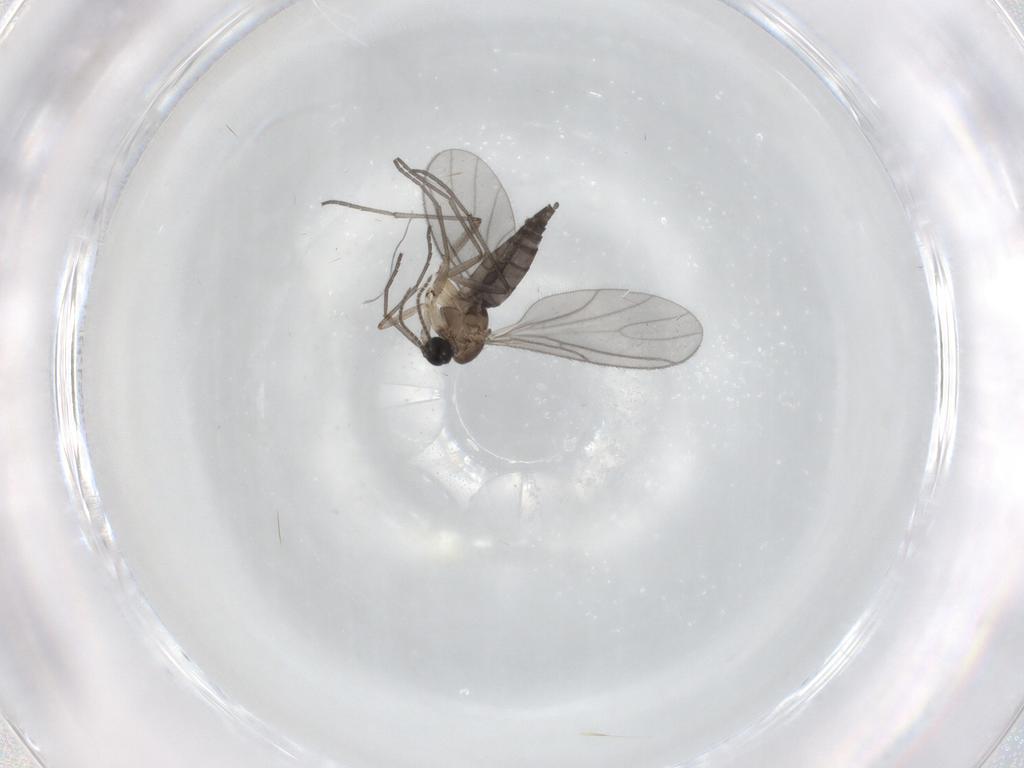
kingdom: Animalia
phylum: Arthropoda
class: Insecta
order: Diptera
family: Sciaridae
